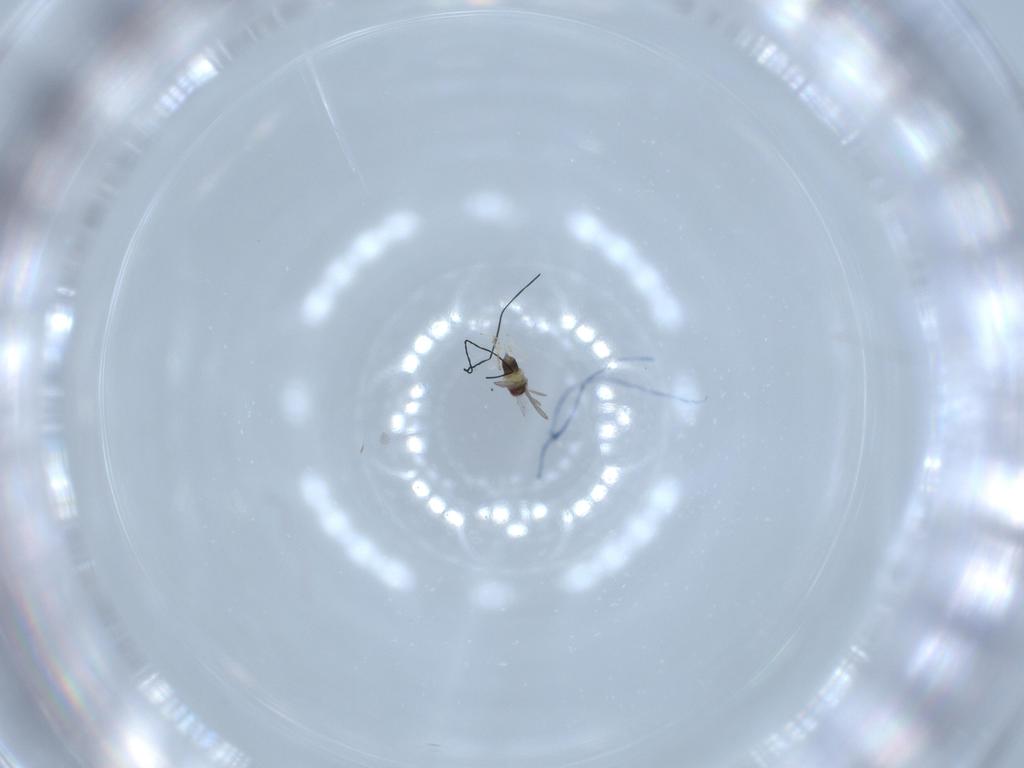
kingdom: Animalia
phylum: Arthropoda
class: Insecta
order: Hymenoptera
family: Aphelinidae
